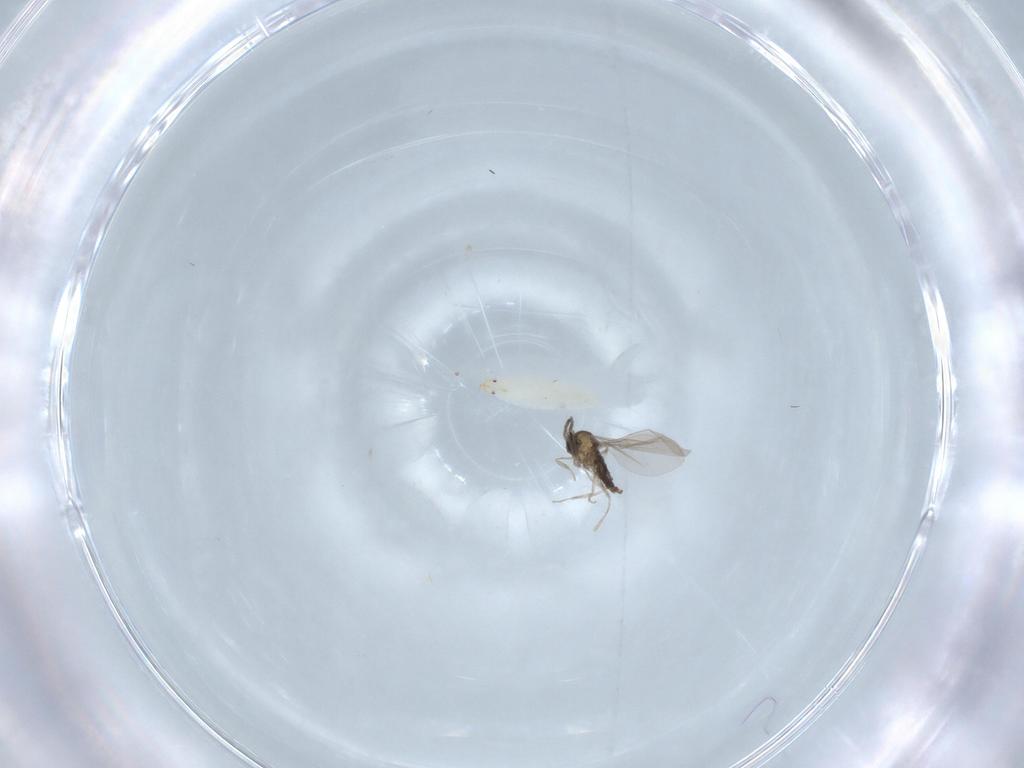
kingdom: Animalia
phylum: Arthropoda
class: Insecta
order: Diptera
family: Cecidomyiidae
